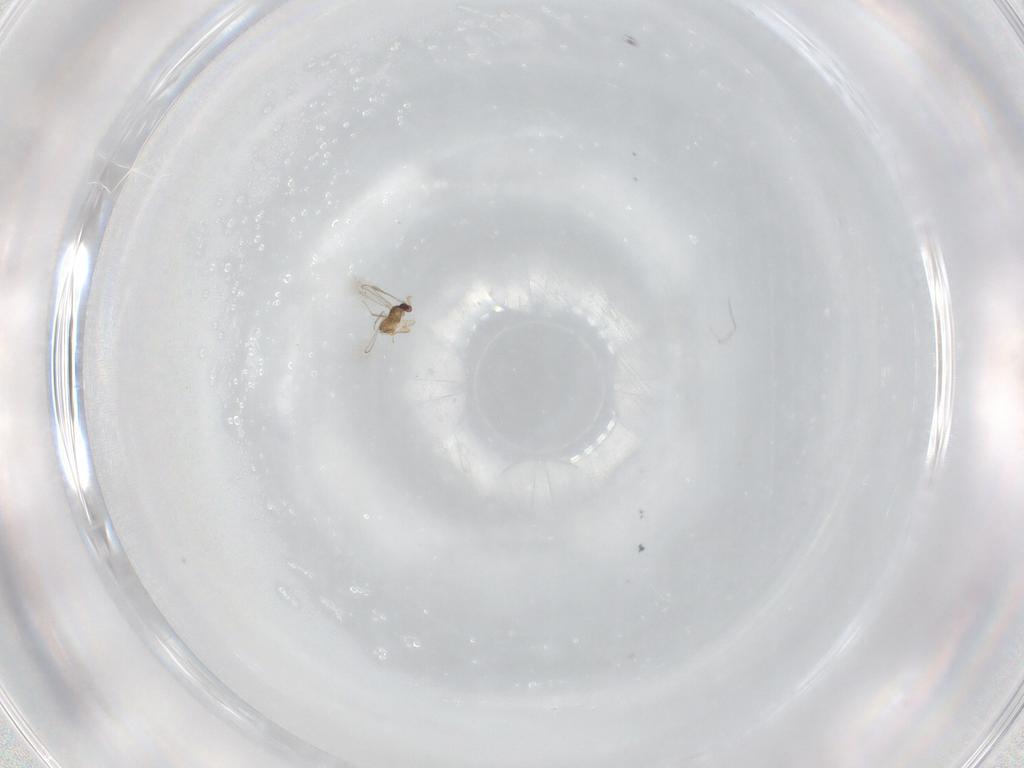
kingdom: Animalia
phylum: Arthropoda
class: Insecta
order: Hymenoptera
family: Mymaridae
